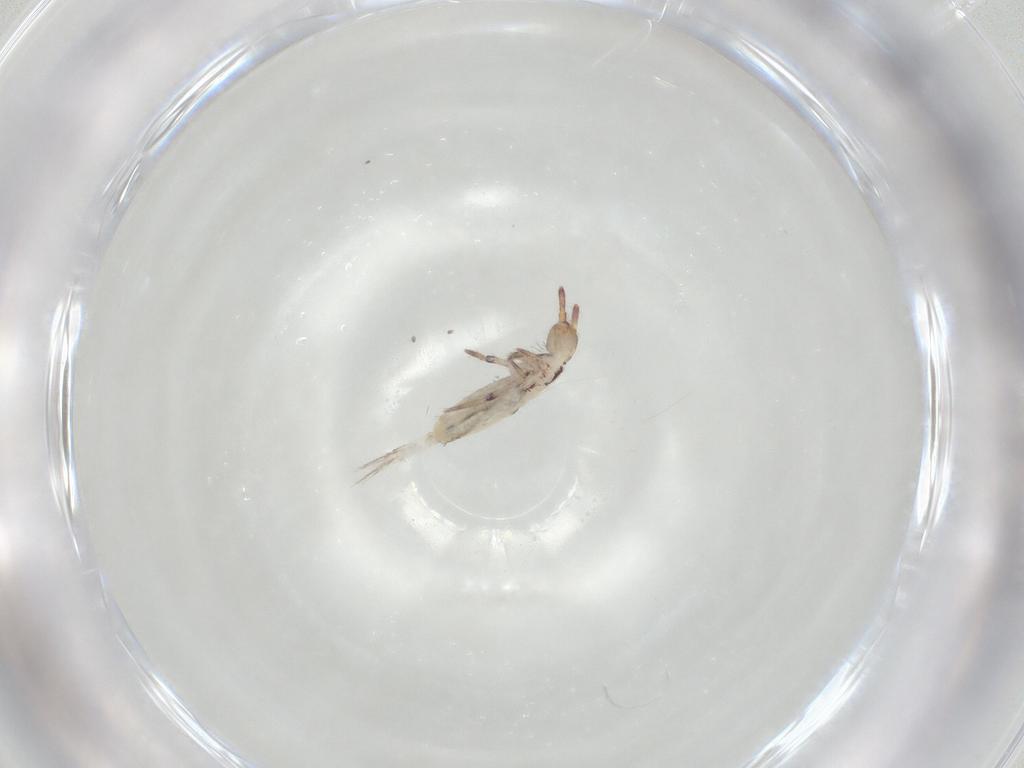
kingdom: Animalia
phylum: Arthropoda
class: Collembola
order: Entomobryomorpha
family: Entomobryidae
